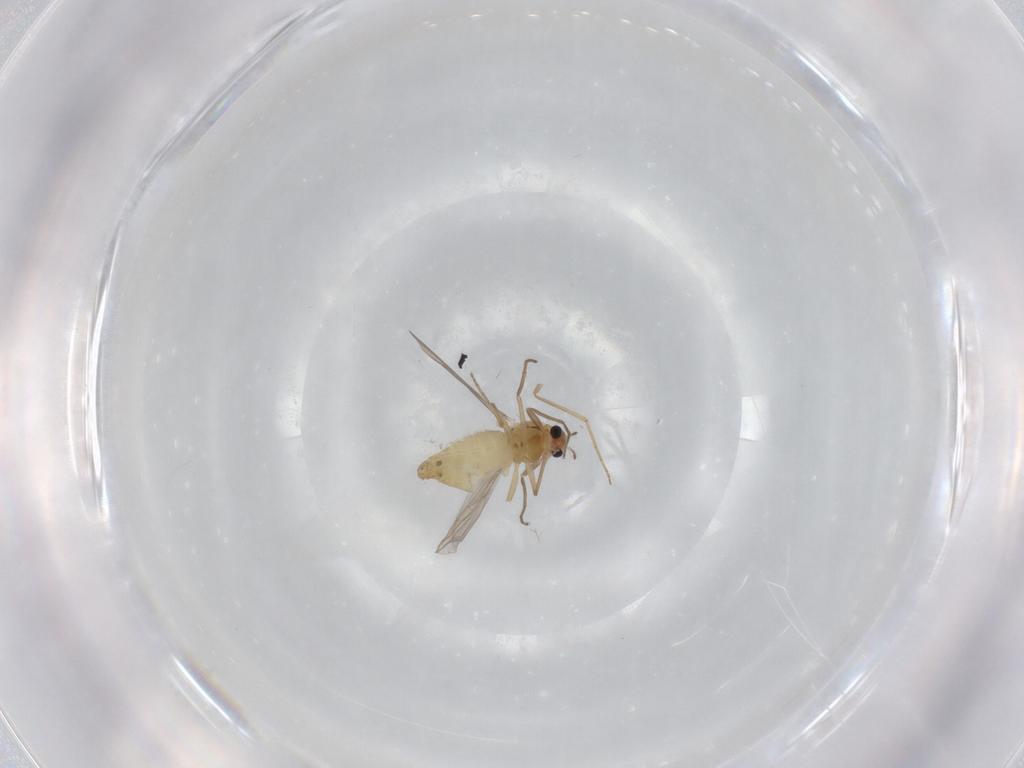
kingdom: Animalia
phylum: Arthropoda
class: Insecta
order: Diptera
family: Chironomidae
